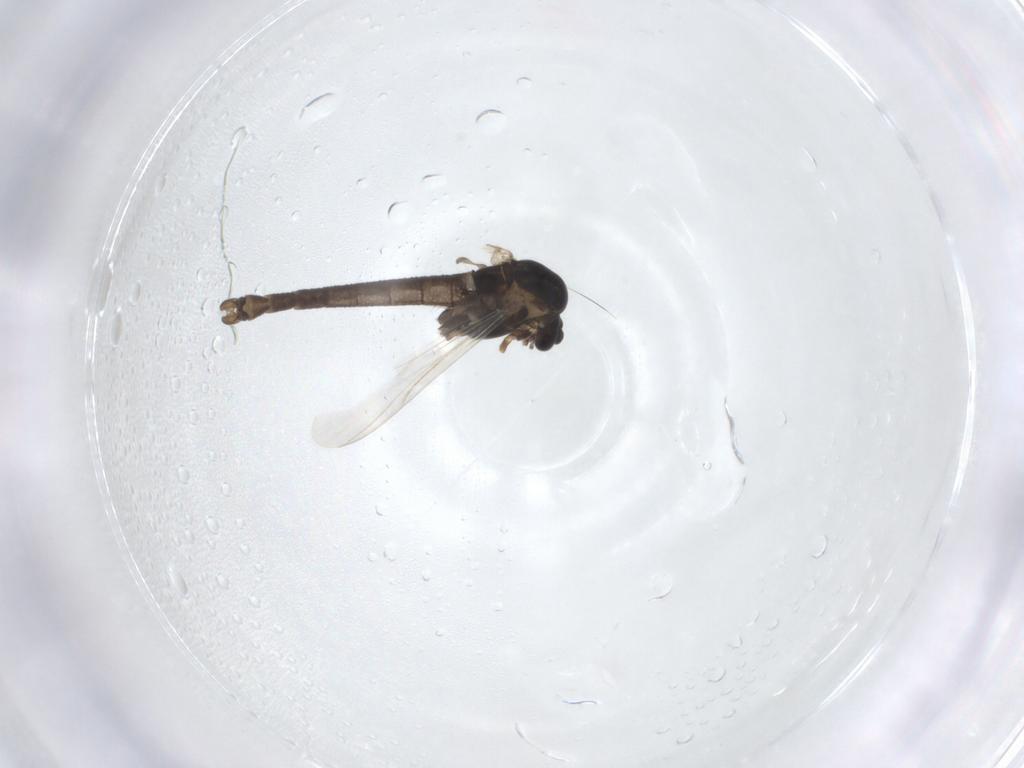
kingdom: Animalia
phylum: Arthropoda
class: Insecta
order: Diptera
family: Chironomidae
